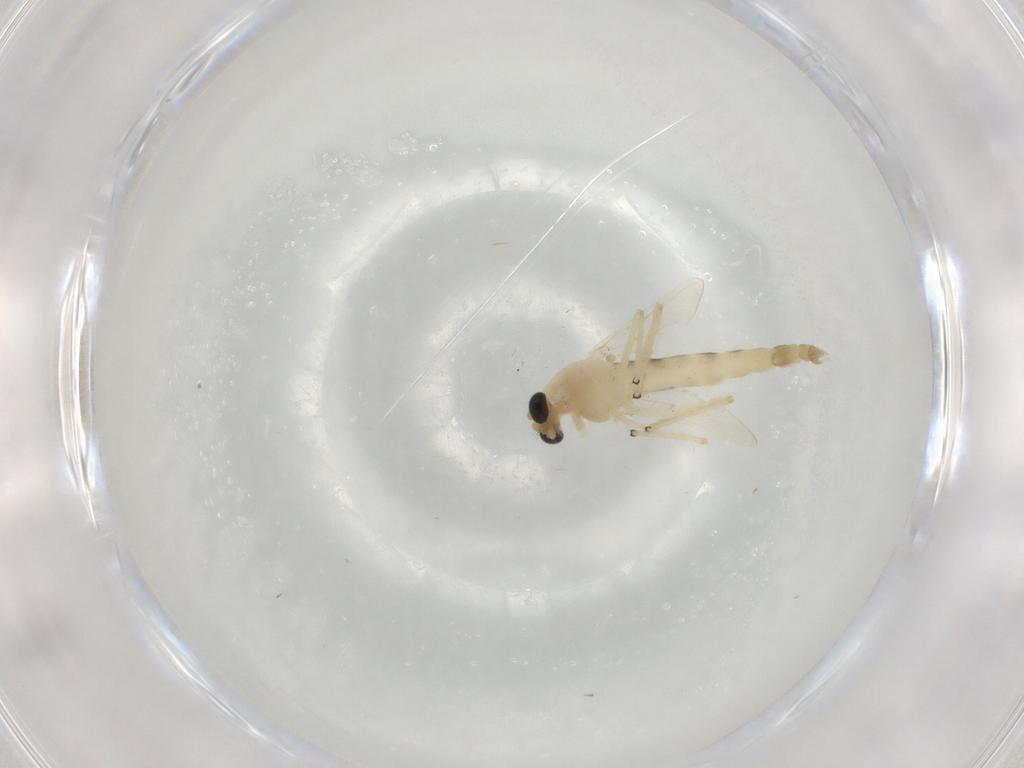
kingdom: Animalia
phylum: Arthropoda
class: Insecta
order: Diptera
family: Chironomidae
